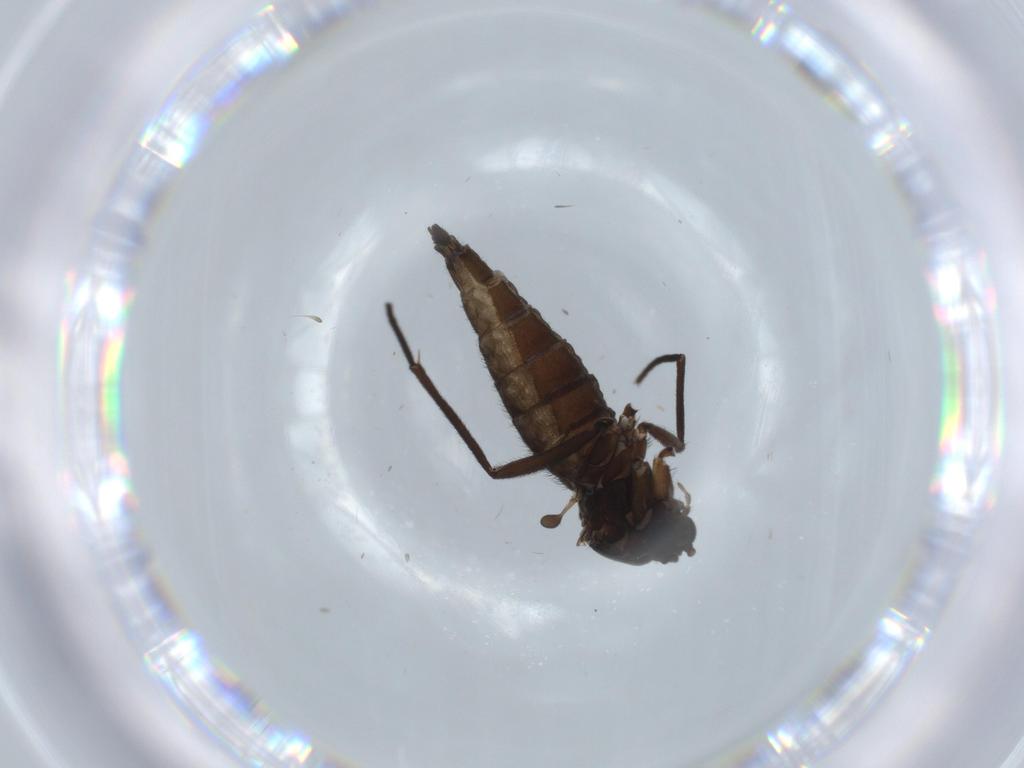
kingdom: Animalia
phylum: Arthropoda
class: Insecta
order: Diptera
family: Sciaridae
